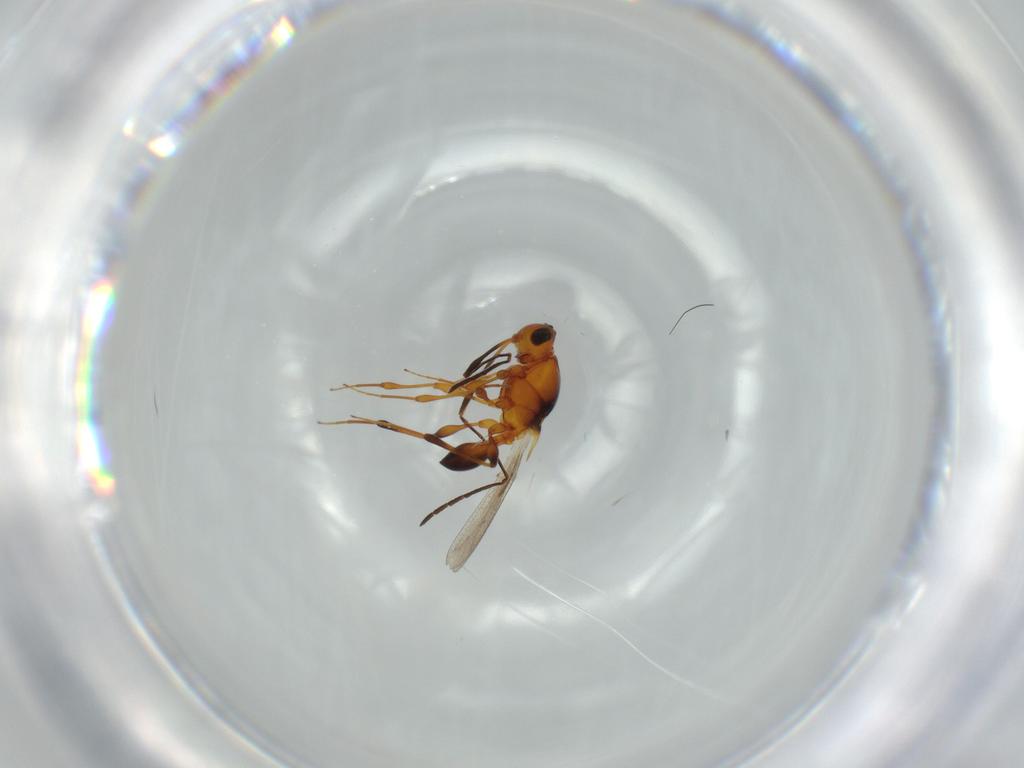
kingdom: Animalia
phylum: Arthropoda
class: Insecta
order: Hymenoptera
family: Platygastridae
